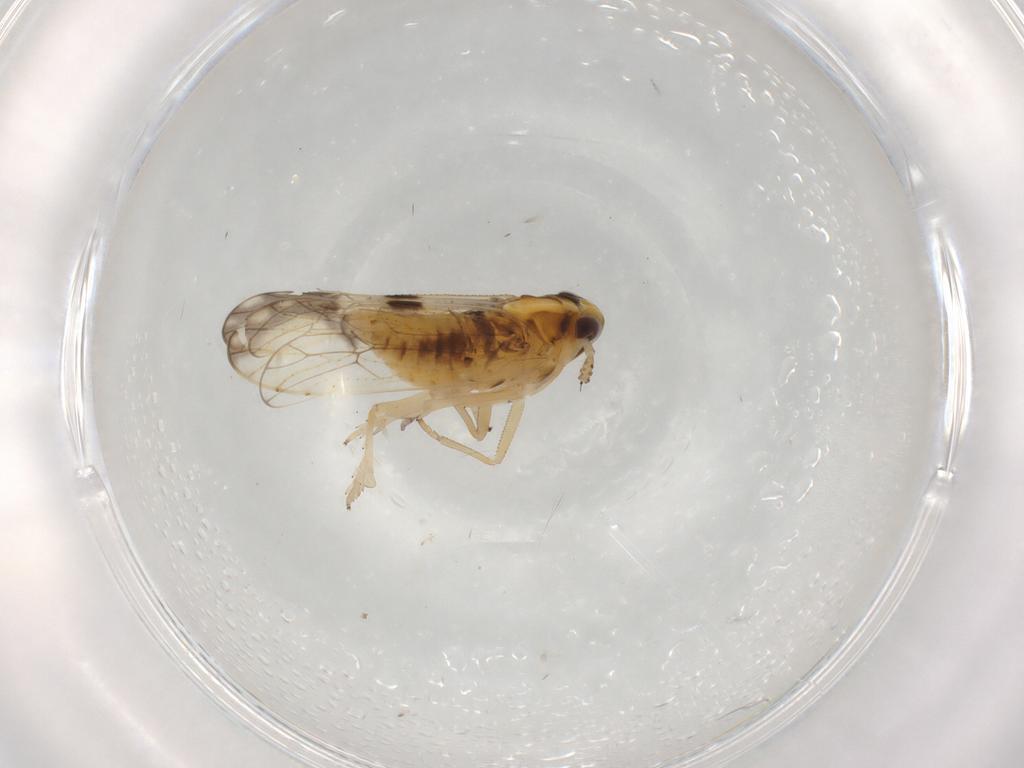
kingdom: Animalia
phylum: Arthropoda
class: Insecta
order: Hemiptera
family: Delphacidae
